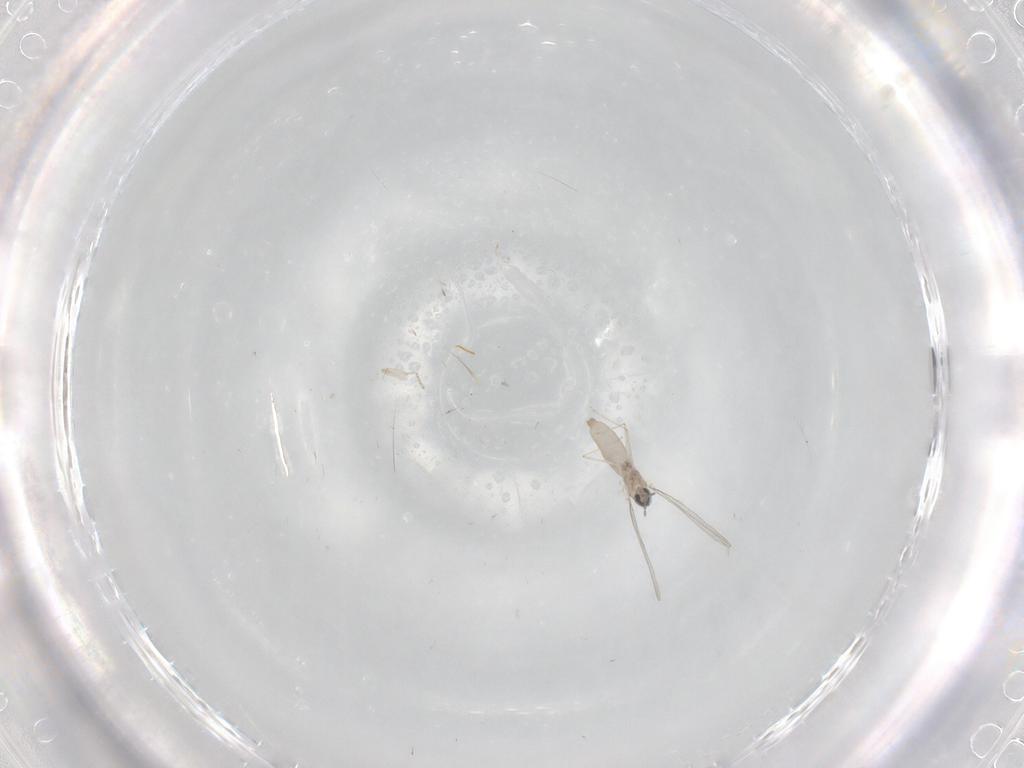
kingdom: Animalia
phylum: Arthropoda
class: Insecta
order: Diptera
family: Cecidomyiidae
